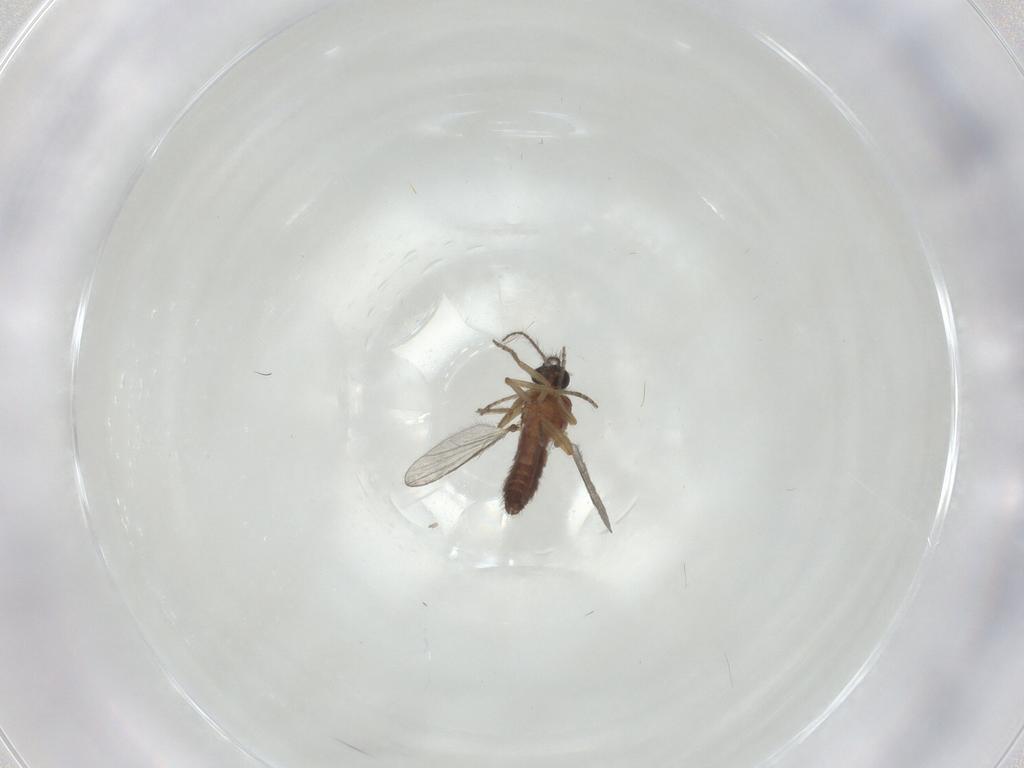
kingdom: Animalia
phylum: Arthropoda
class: Insecta
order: Diptera
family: Ceratopogonidae
